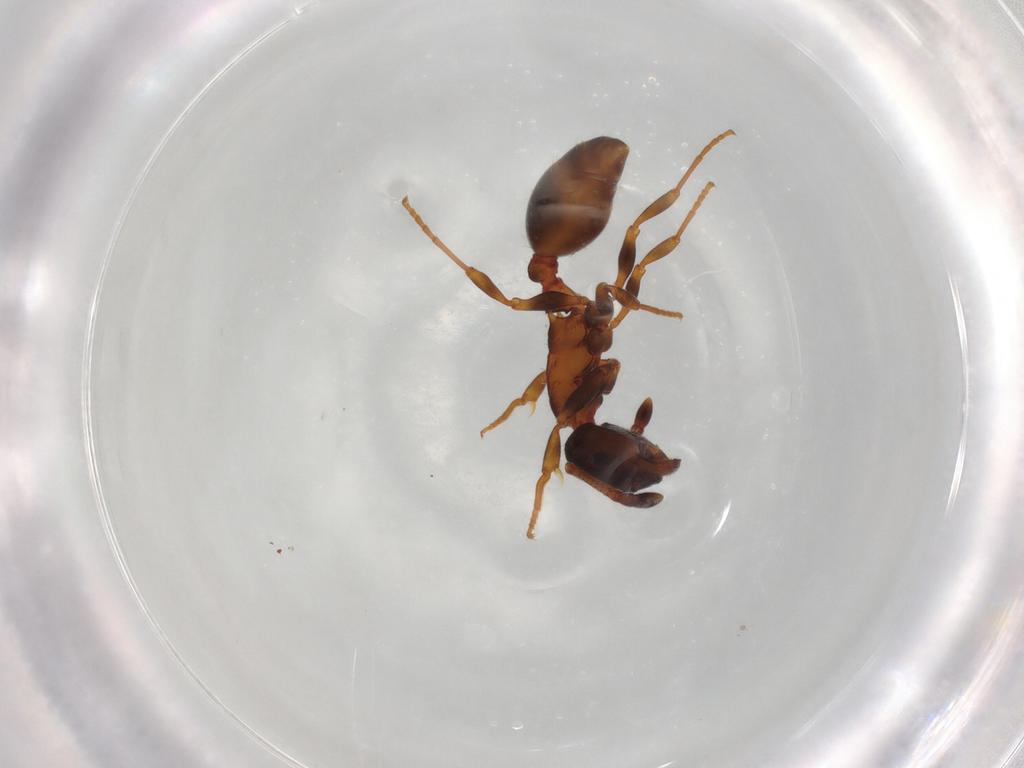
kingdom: Animalia
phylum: Arthropoda
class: Insecta
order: Hymenoptera
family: Formicidae
